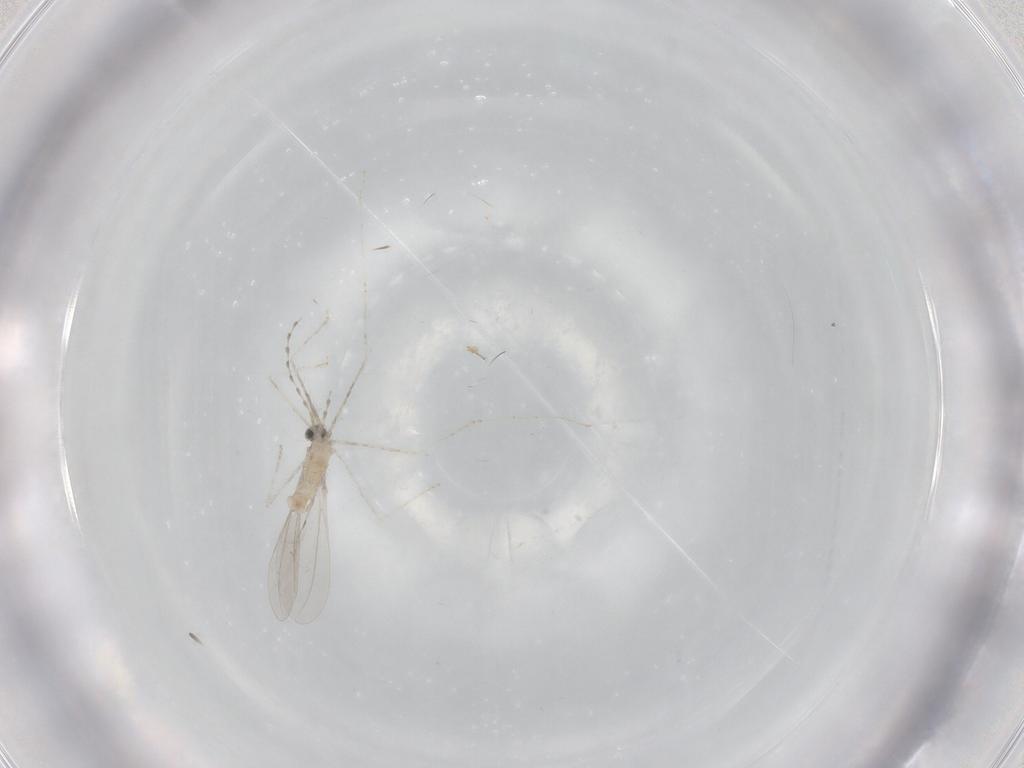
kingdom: Animalia
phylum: Arthropoda
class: Insecta
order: Diptera
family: Cecidomyiidae
